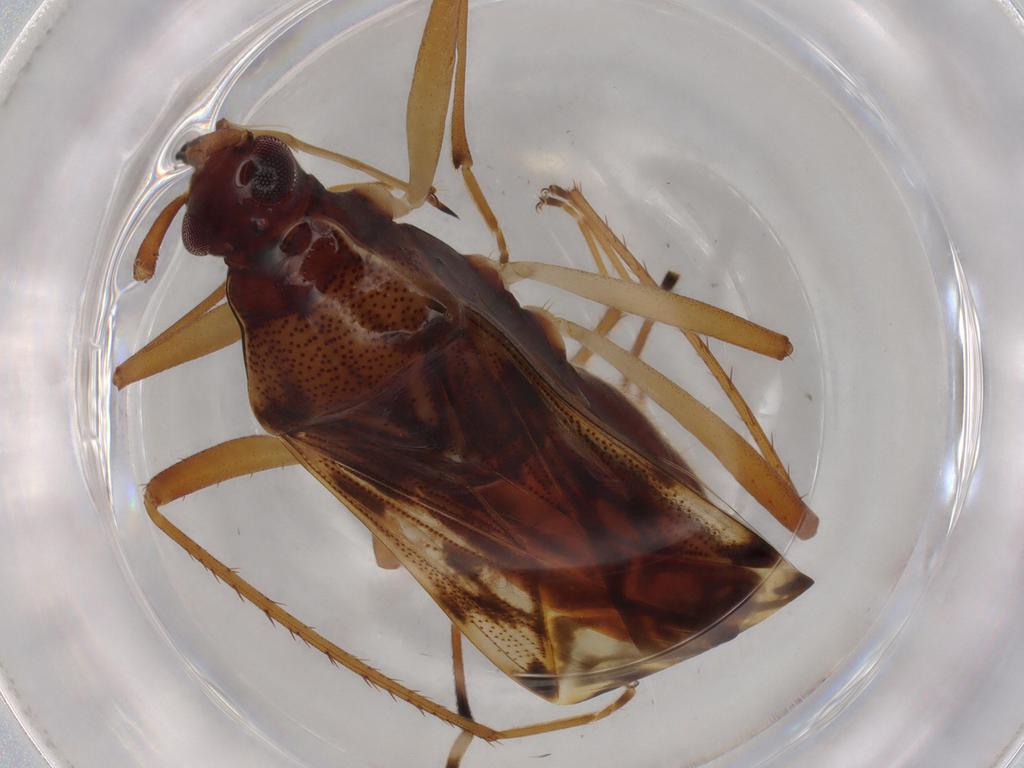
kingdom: Animalia
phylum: Arthropoda
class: Insecta
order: Hemiptera
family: Rhyparochromidae
